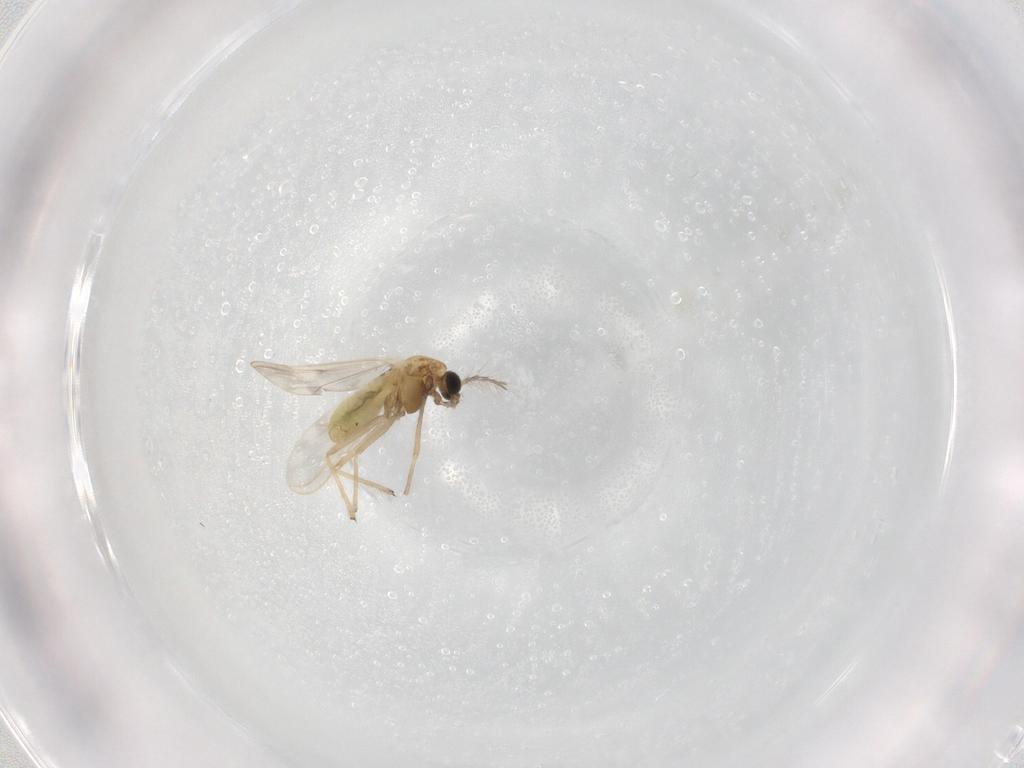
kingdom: Animalia
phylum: Arthropoda
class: Insecta
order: Diptera
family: Chironomidae
